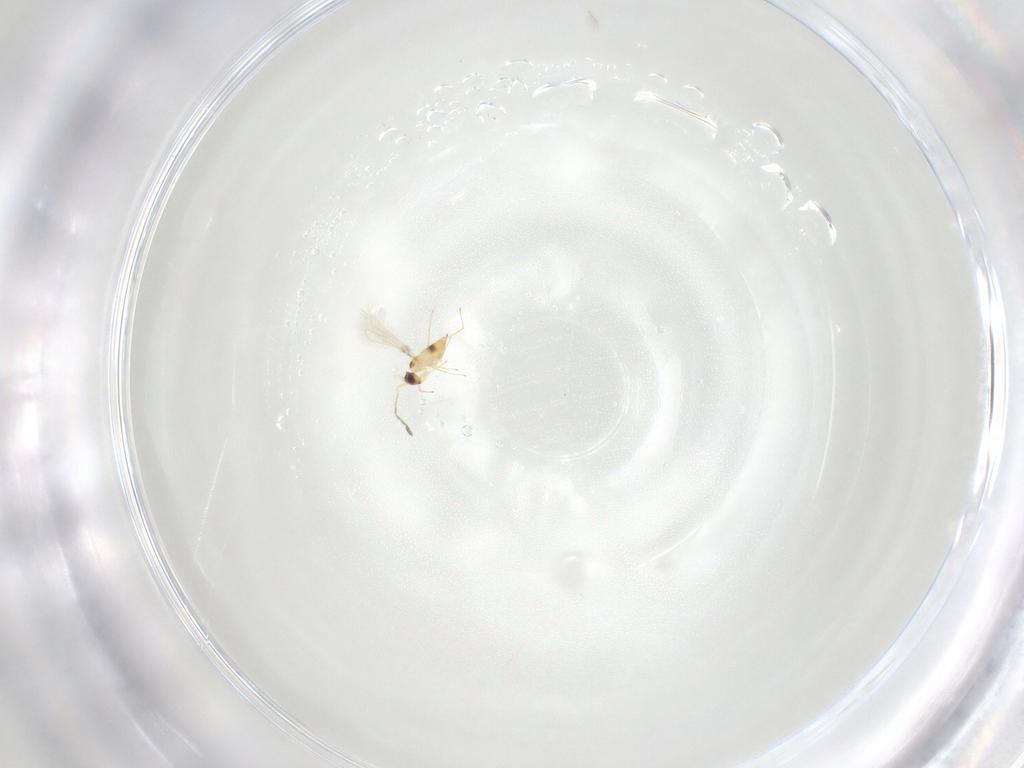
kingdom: Animalia
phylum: Arthropoda
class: Insecta
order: Hymenoptera
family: Mymaridae
